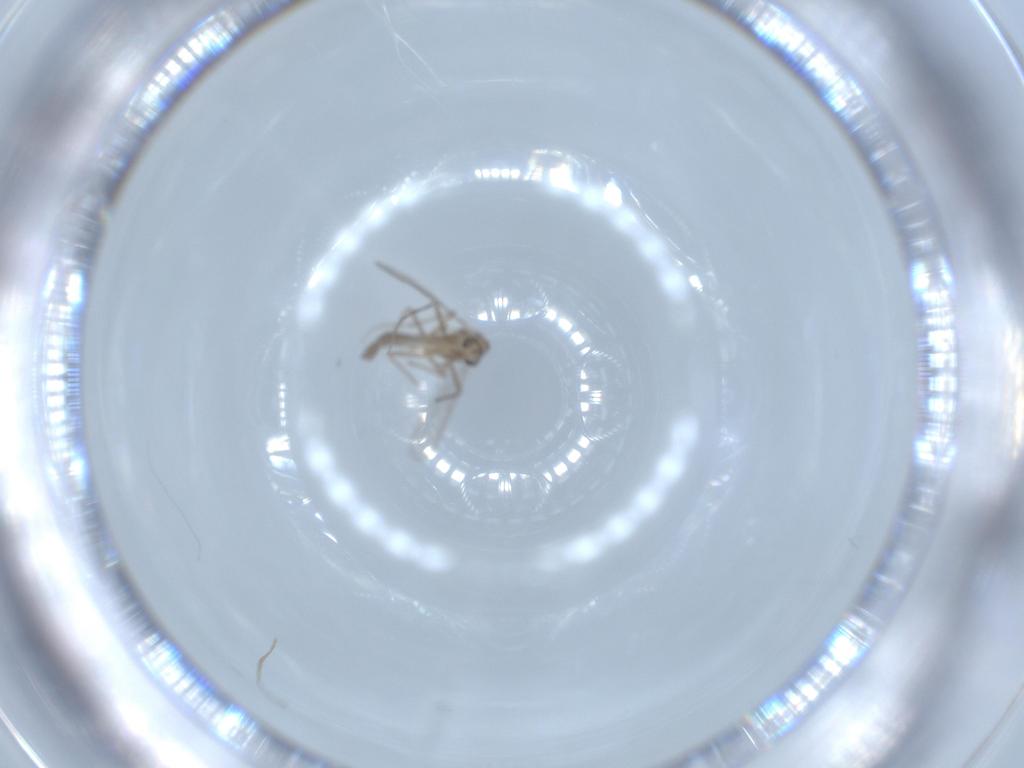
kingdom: Animalia
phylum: Arthropoda
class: Insecta
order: Diptera
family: Chironomidae
